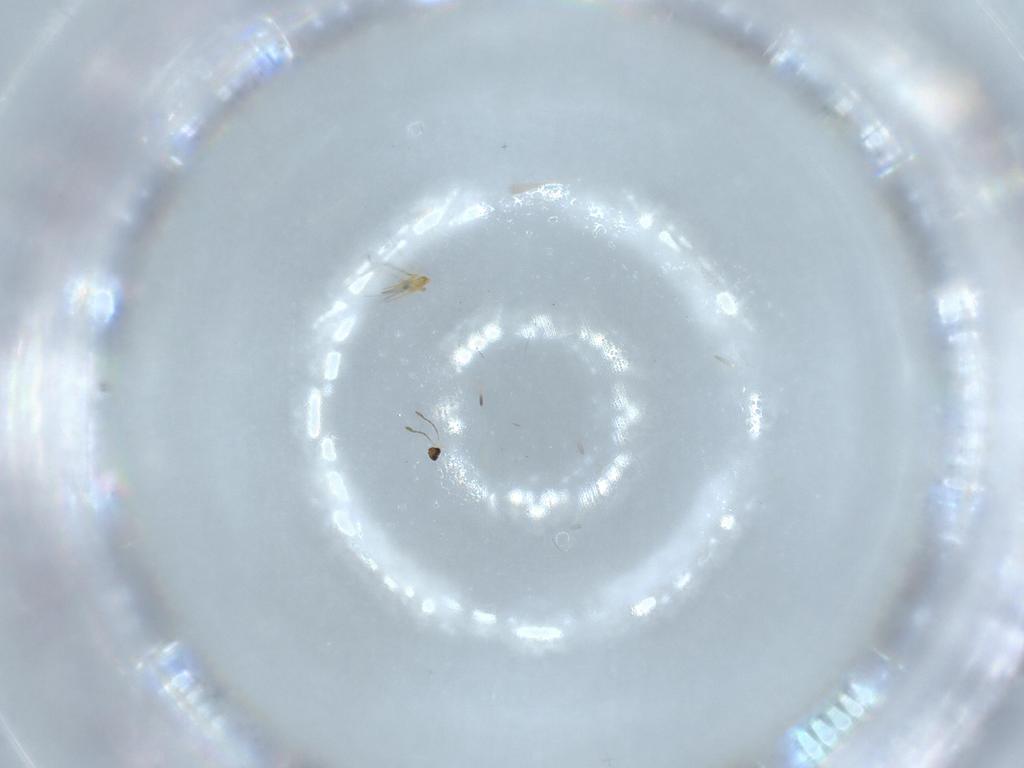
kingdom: Animalia
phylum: Arthropoda
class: Insecta
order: Hymenoptera
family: Mymaridae
